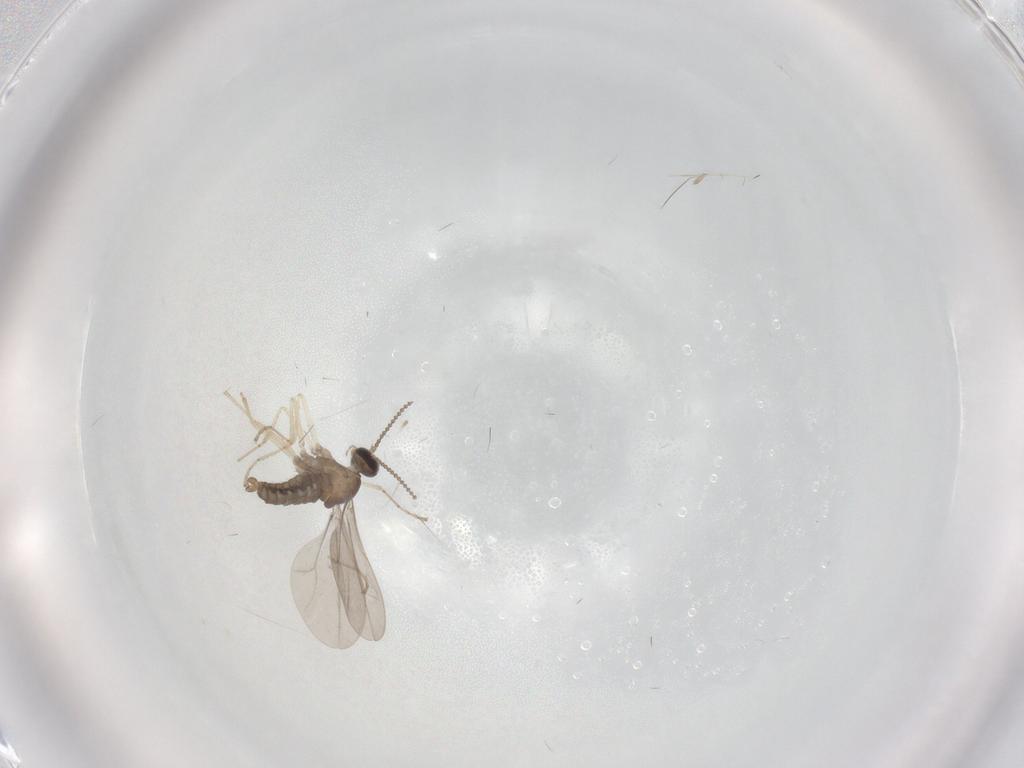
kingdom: Animalia
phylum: Arthropoda
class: Insecta
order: Diptera
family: Cecidomyiidae
